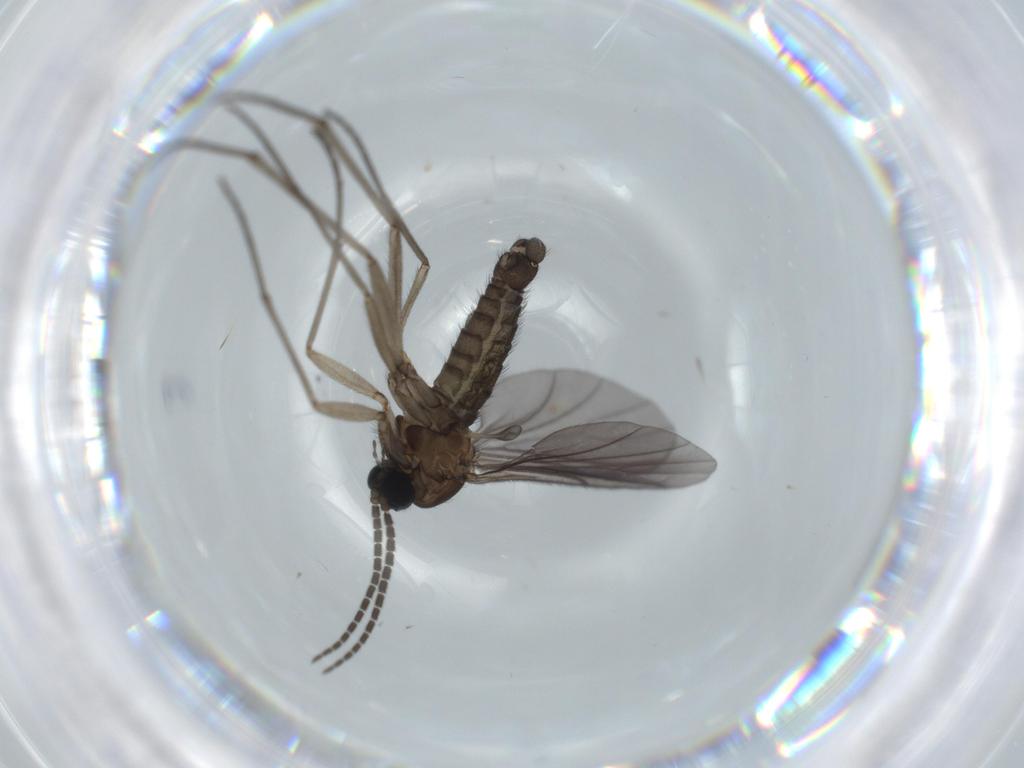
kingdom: Animalia
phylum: Arthropoda
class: Insecta
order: Diptera
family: Sciaridae
